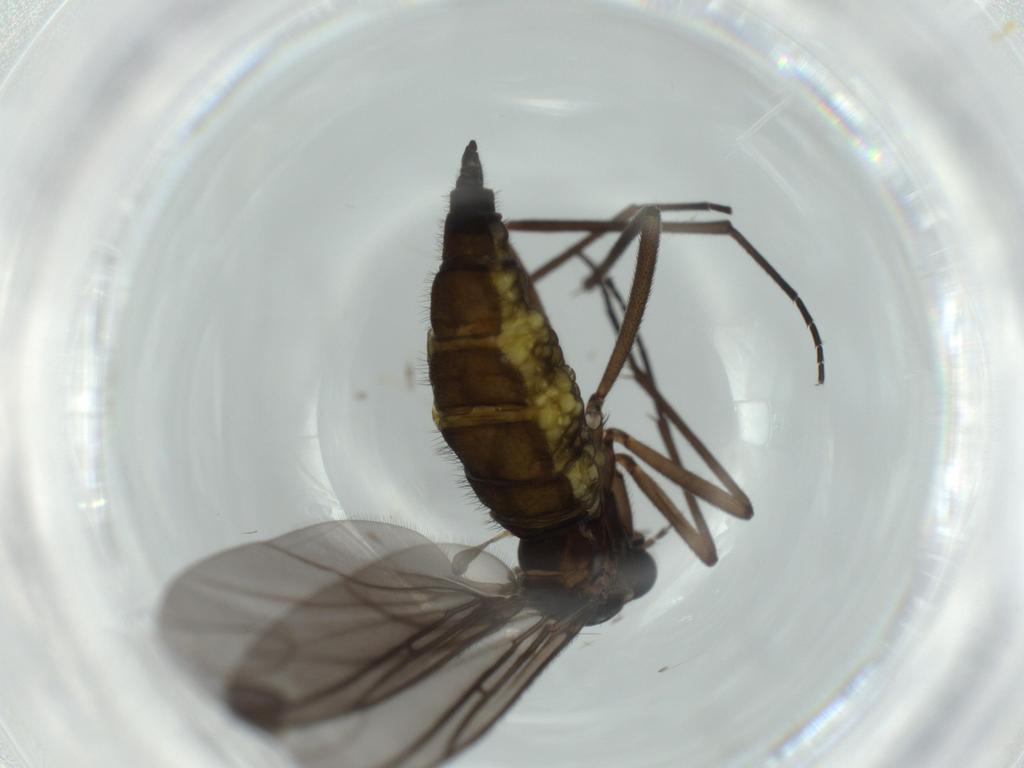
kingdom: Animalia
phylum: Arthropoda
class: Insecta
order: Diptera
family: Sciaridae
